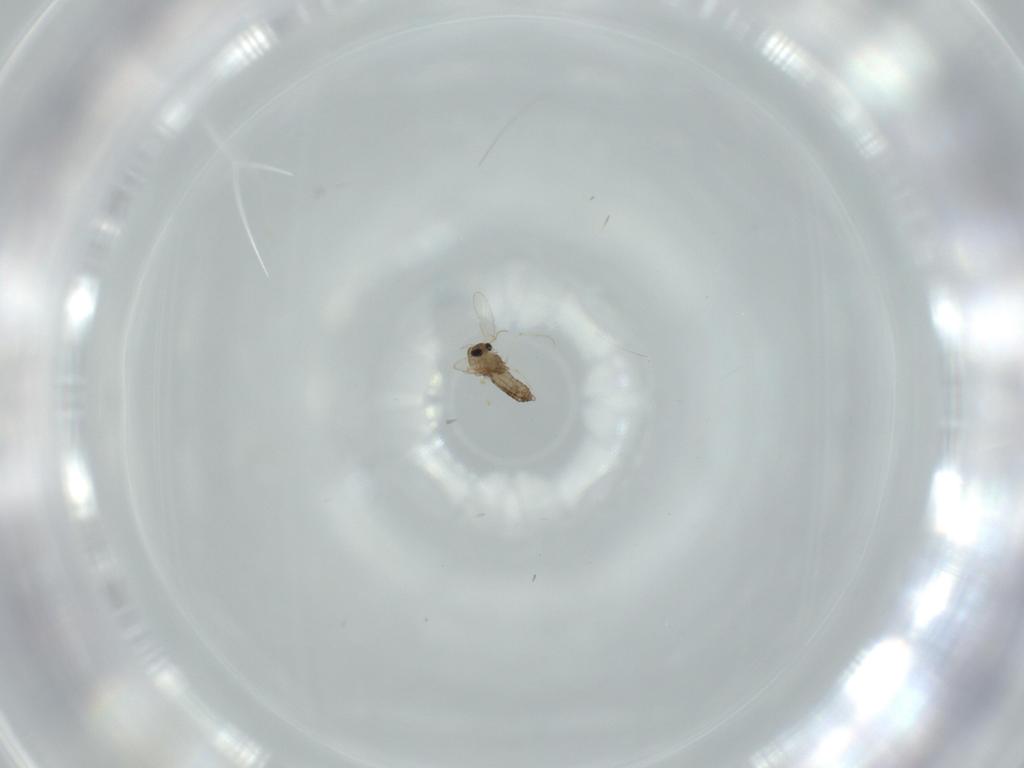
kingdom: Animalia
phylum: Arthropoda
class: Insecta
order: Diptera
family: Chironomidae
